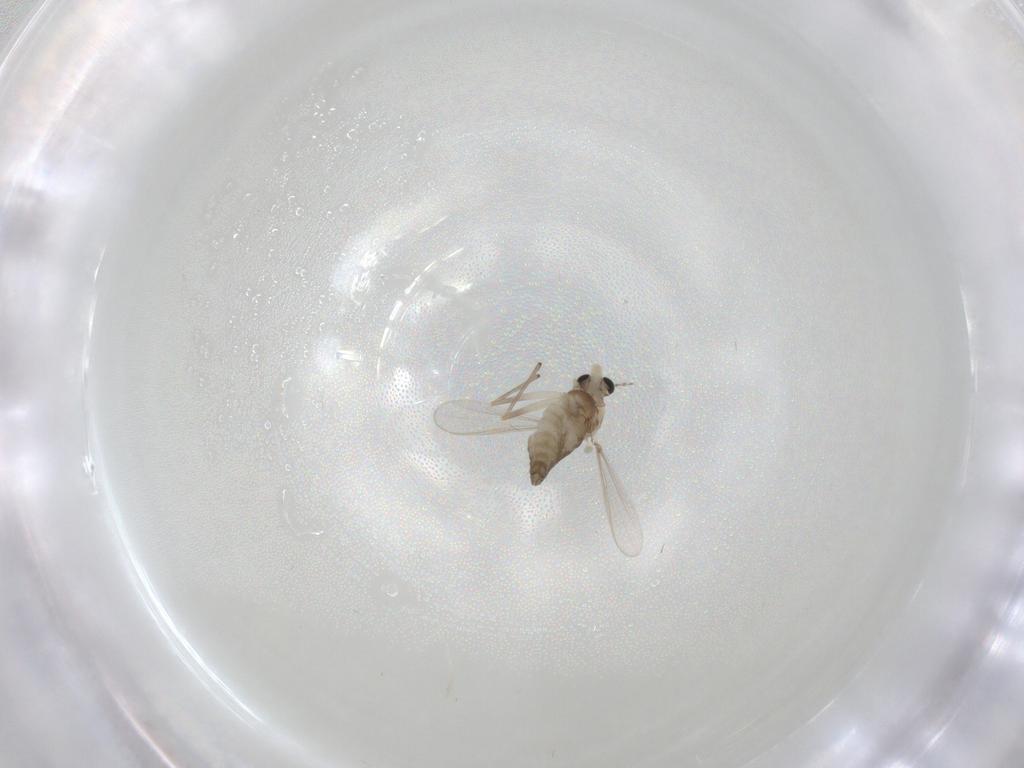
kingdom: Animalia
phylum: Arthropoda
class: Insecta
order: Diptera
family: Chironomidae
